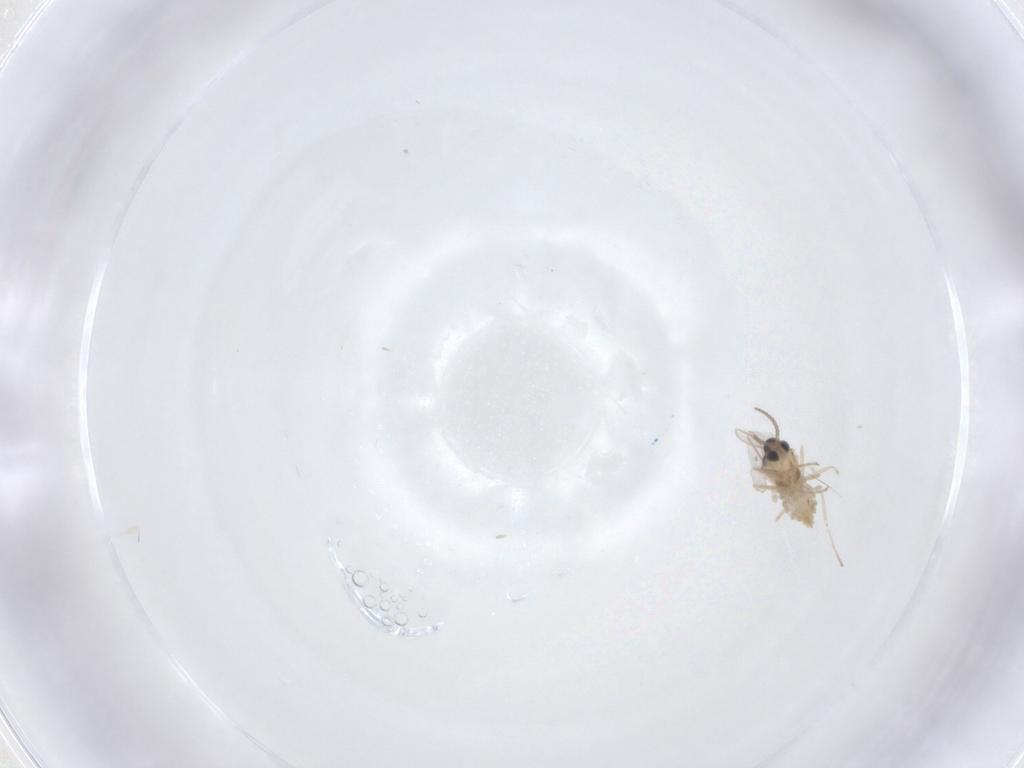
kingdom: Animalia
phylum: Arthropoda
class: Insecta
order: Diptera
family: Cecidomyiidae
